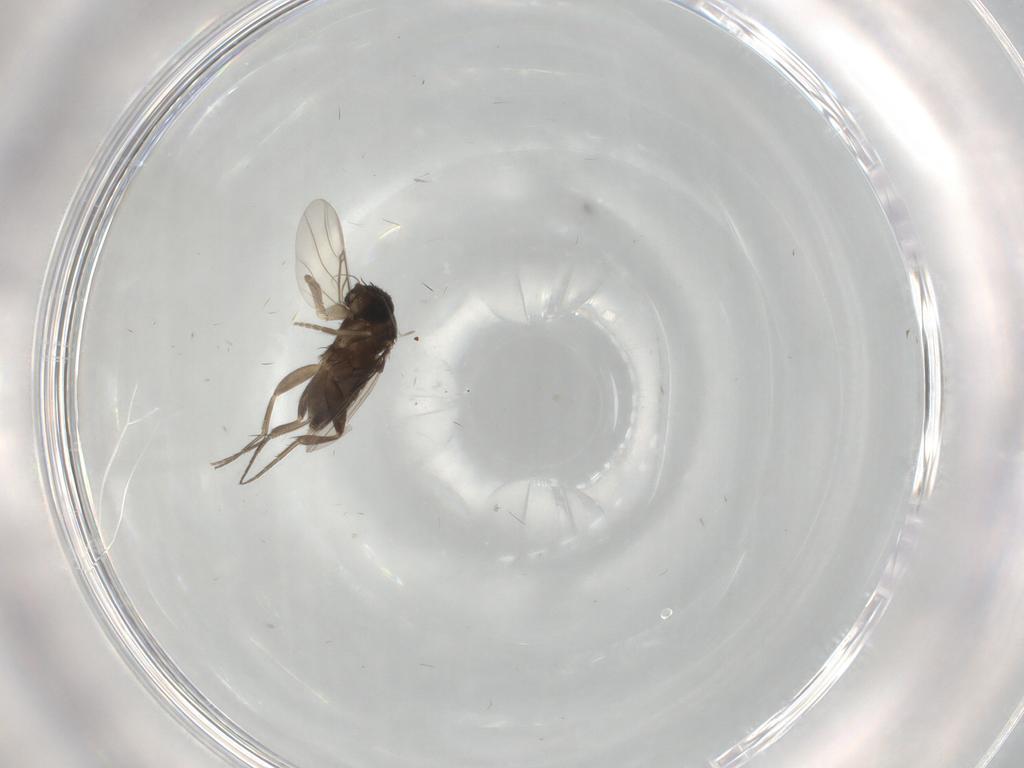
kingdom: Animalia
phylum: Arthropoda
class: Insecta
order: Diptera
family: Phoridae
